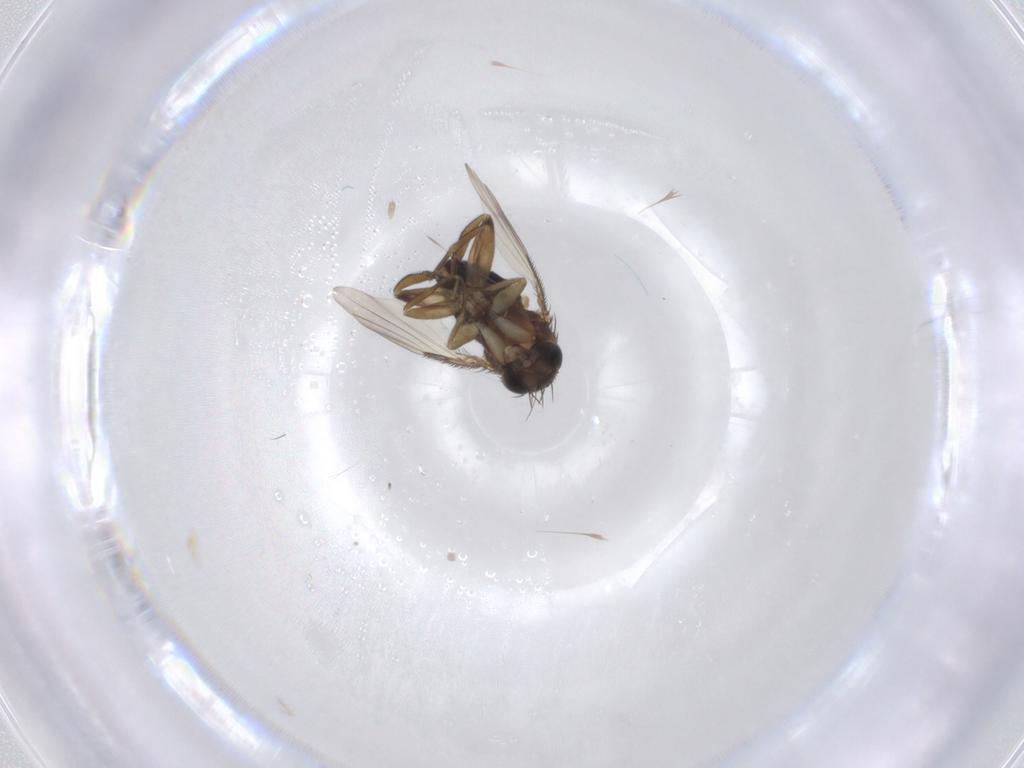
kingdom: Animalia
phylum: Arthropoda
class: Insecta
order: Diptera
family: Phoridae
